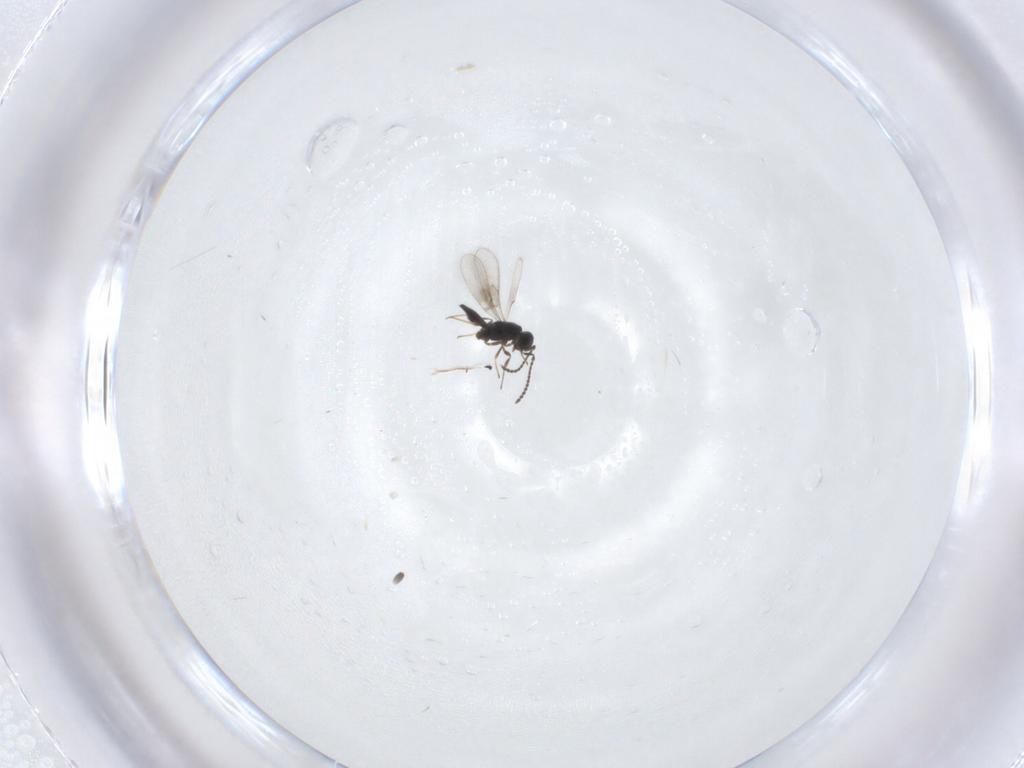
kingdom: Animalia
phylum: Arthropoda
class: Insecta
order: Hymenoptera
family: Scelionidae
